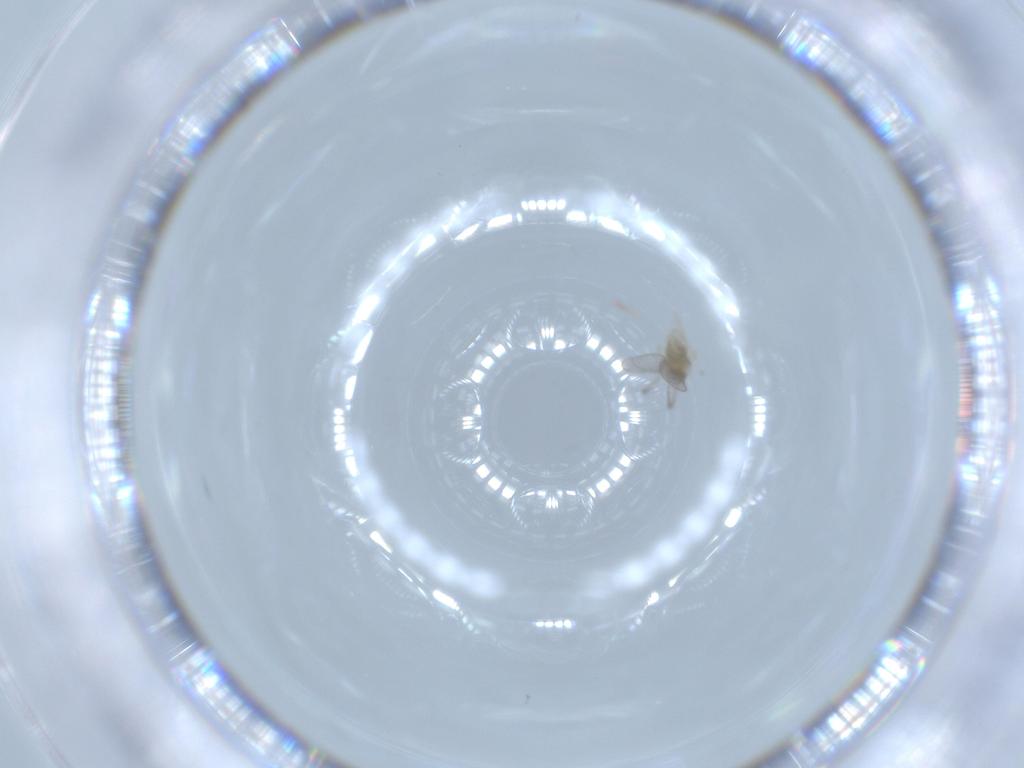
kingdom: Animalia
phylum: Arthropoda
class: Insecta
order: Diptera
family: Cecidomyiidae
